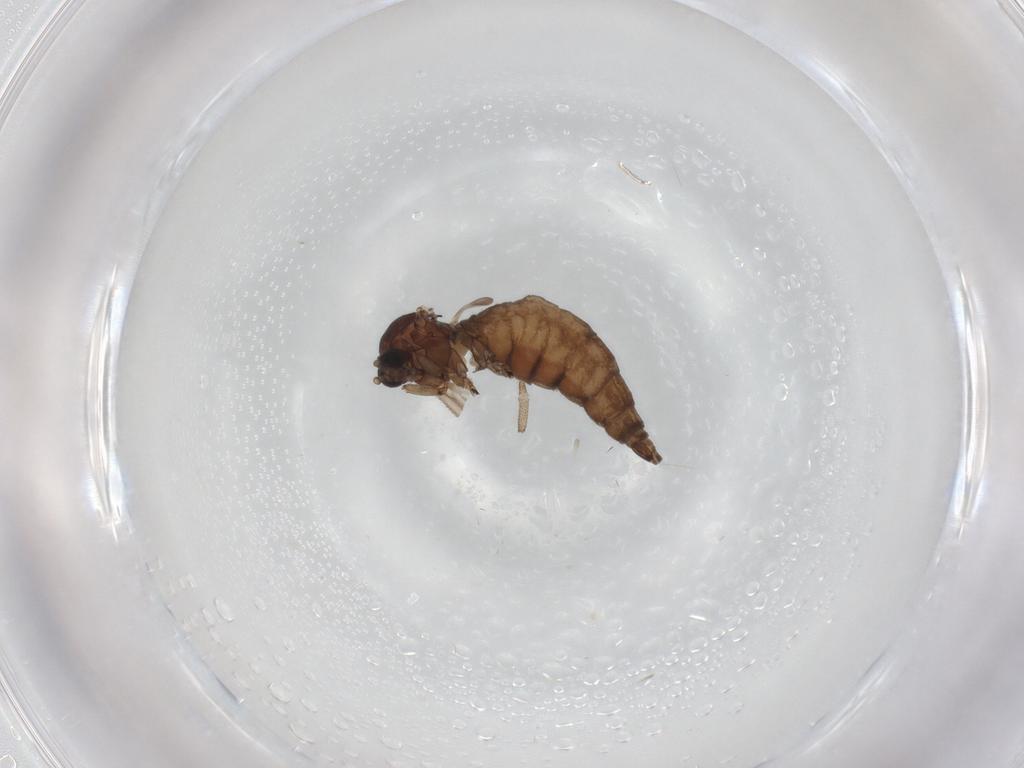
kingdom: Animalia
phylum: Arthropoda
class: Insecta
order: Diptera
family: Sciaridae
